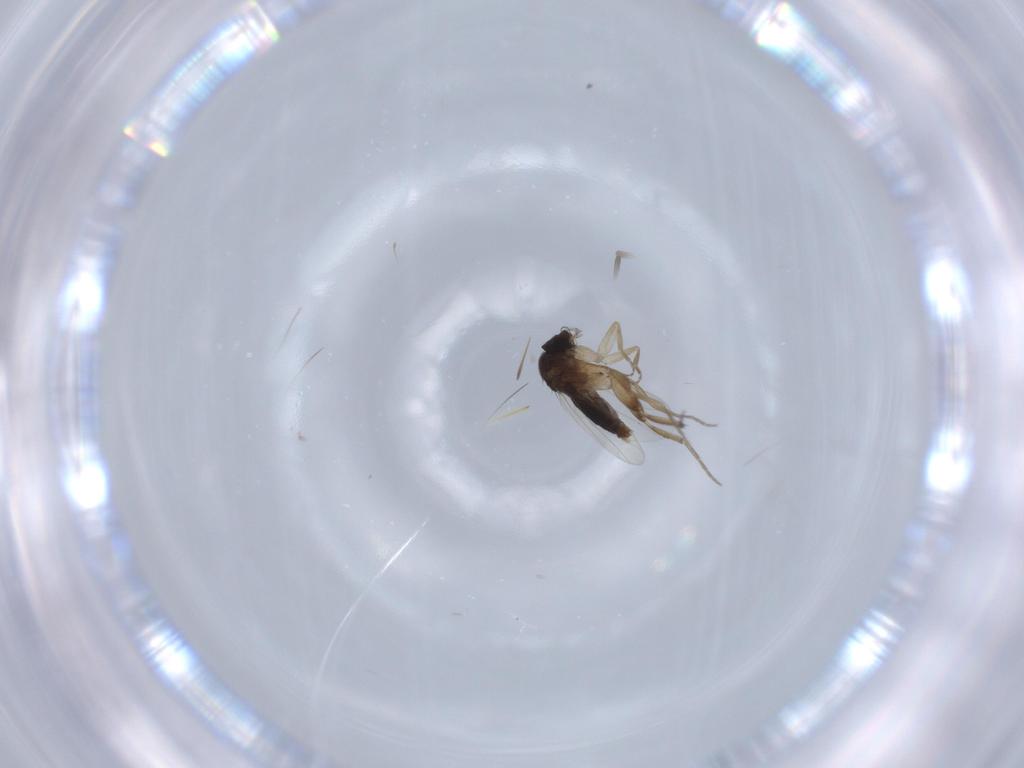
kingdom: Animalia
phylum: Arthropoda
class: Insecta
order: Diptera
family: Phoridae
